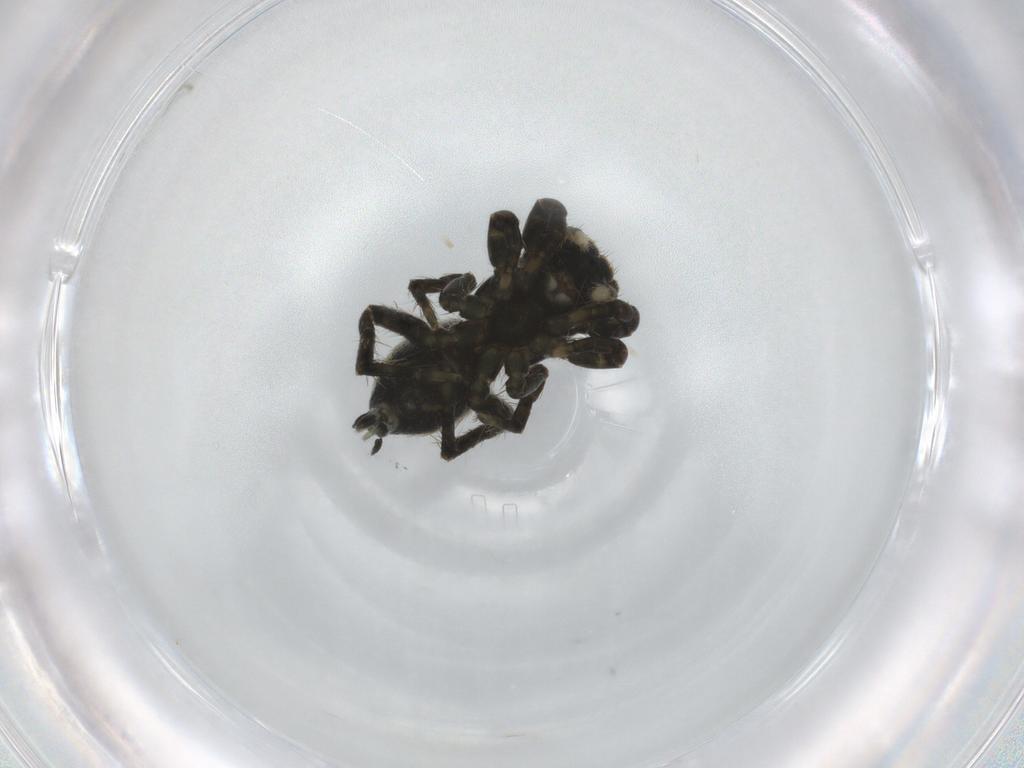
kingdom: Animalia
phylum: Arthropoda
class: Arachnida
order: Araneae
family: Salticidae
